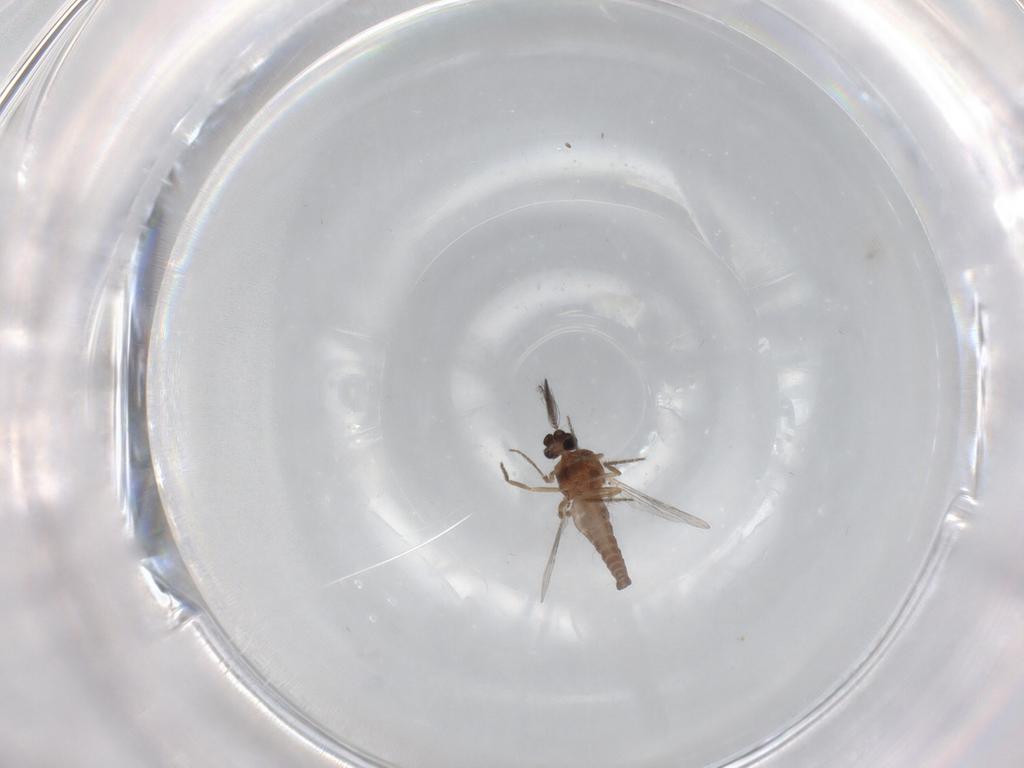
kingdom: Animalia
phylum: Arthropoda
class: Insecta
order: Diptera
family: Ceratopogonidae
